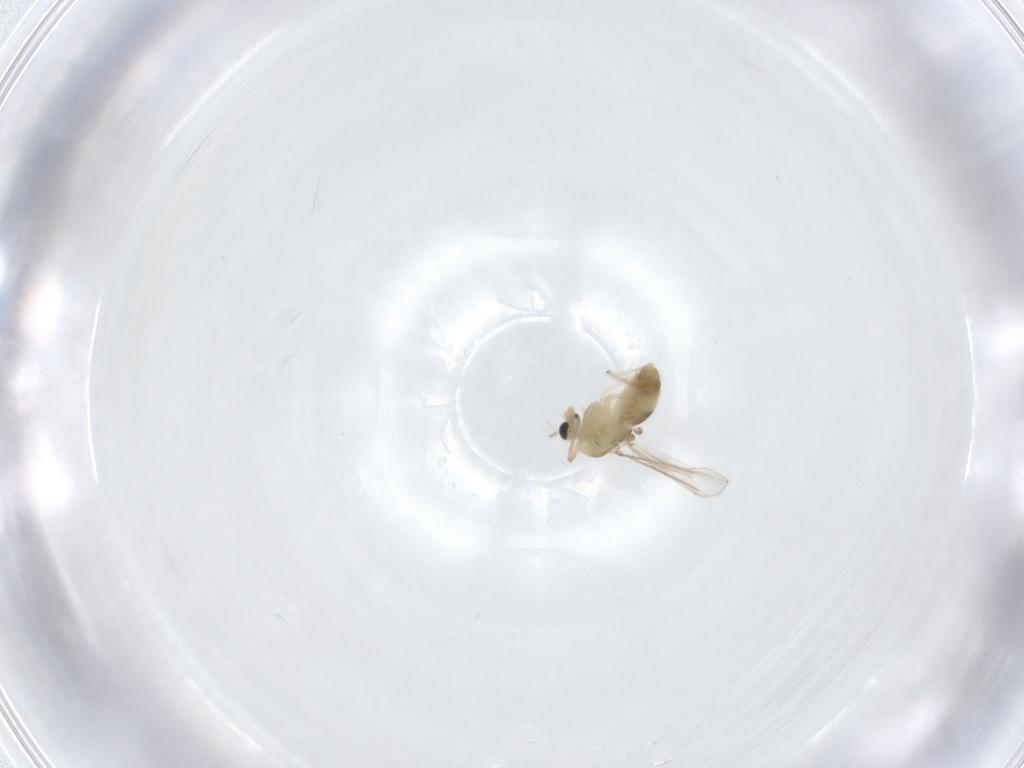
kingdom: Animalia
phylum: Arthropoda
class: Insecta
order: Diptera
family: Chironomidae
